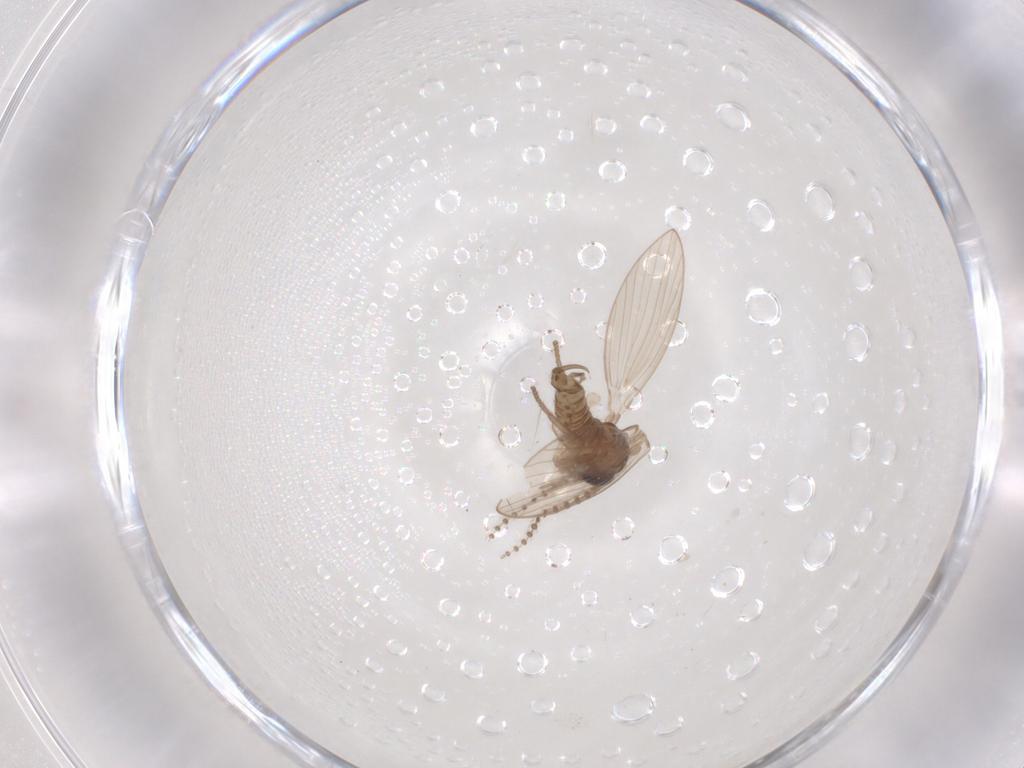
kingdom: Animalia
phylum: Arthropoda
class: Insecta
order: Diptera
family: Psychodidae
